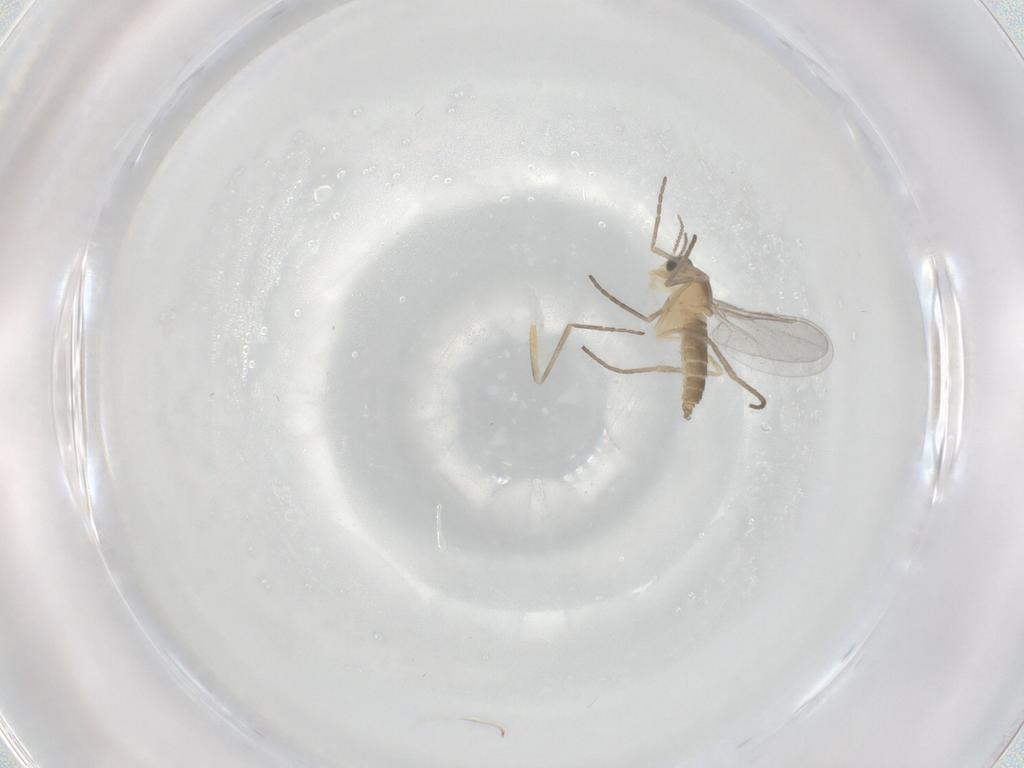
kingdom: Animalia
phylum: Arthropoda
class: Insecta
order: Diptera
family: Cecidomyiidae
